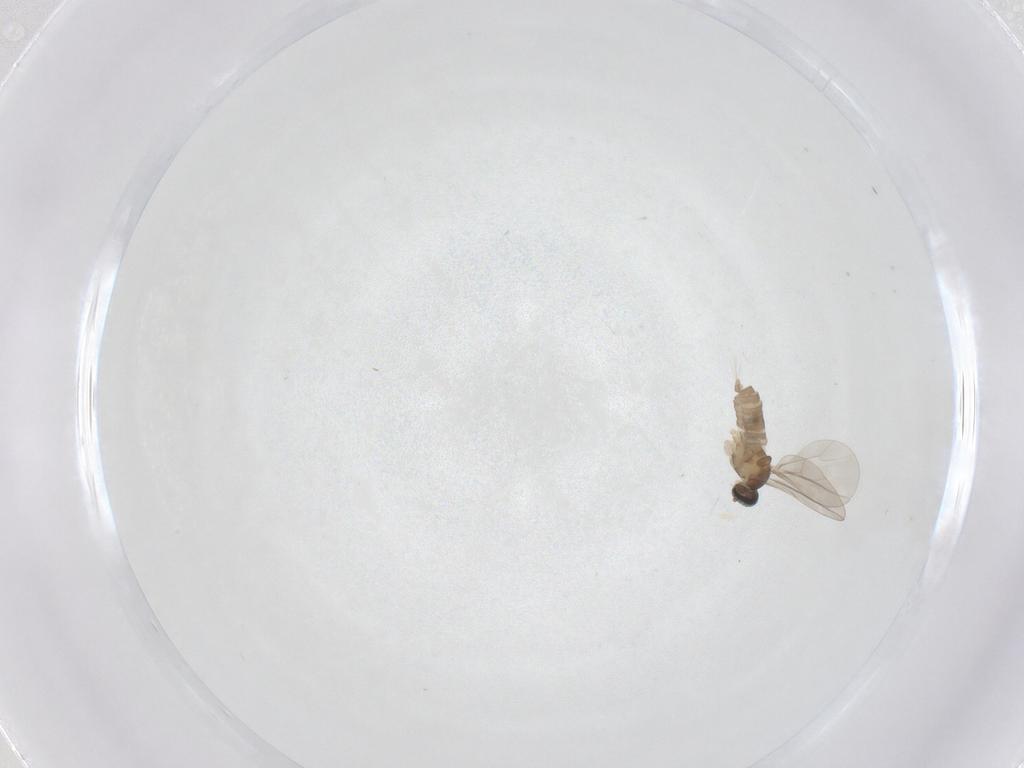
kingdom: Animalia
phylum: Arthropoda
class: Insecta
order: Diptera
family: Cecidomyiidae
